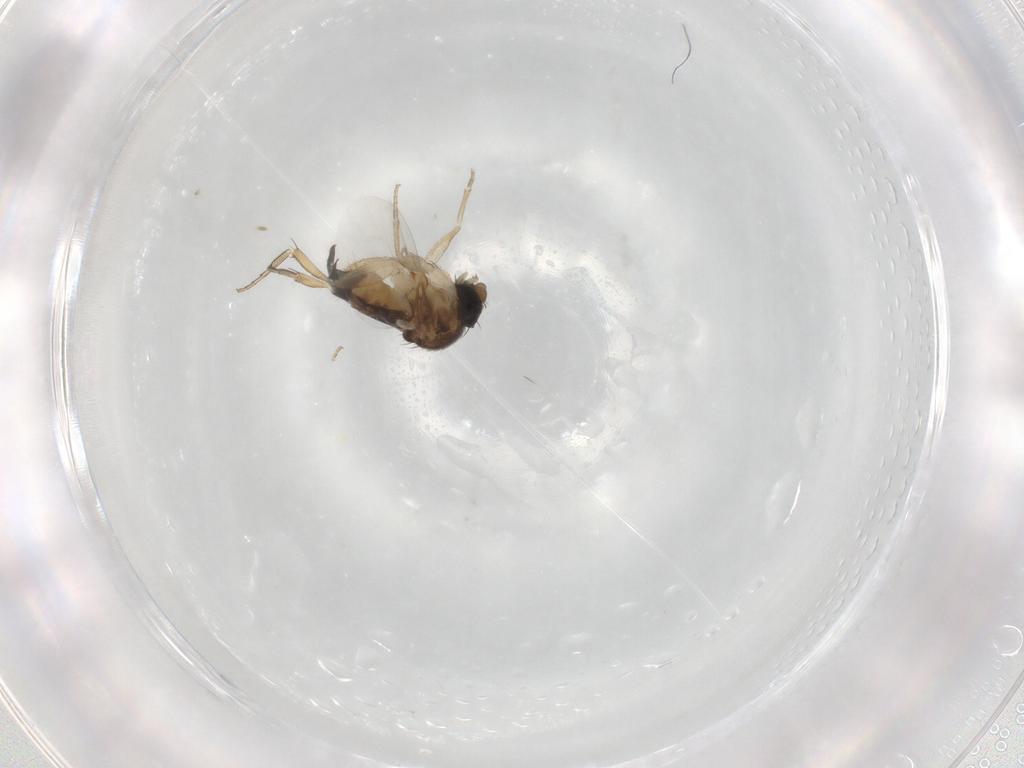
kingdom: Animalia
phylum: Arthropoda
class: Insecta
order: Diptera
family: Phoridae
